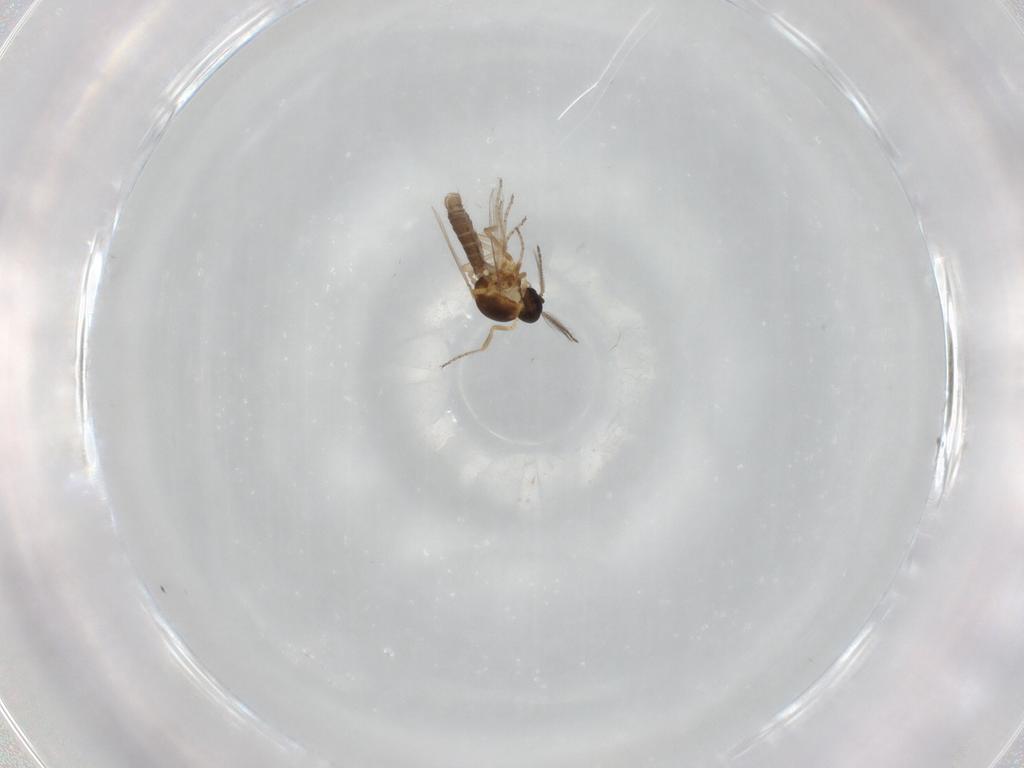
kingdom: Animalia
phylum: Arthropoda
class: Insecta
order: Diptera
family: Ceratopogonidae
